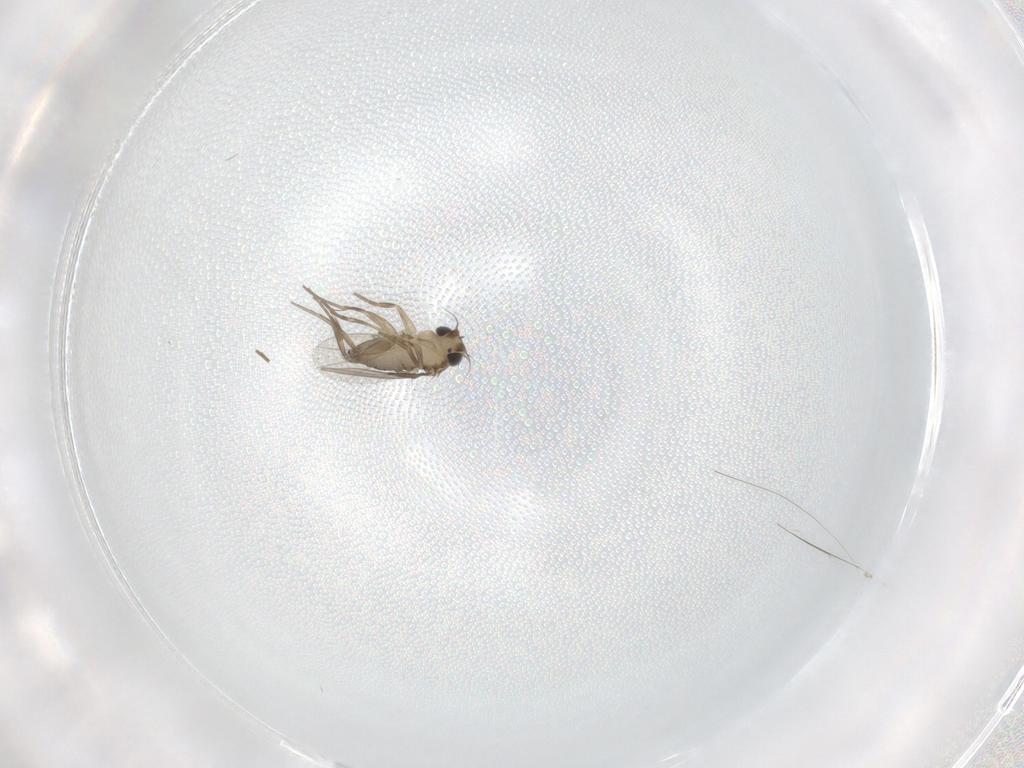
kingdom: Animalia
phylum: Arthropoda
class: Insecta
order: Diptera
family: Phoridae
